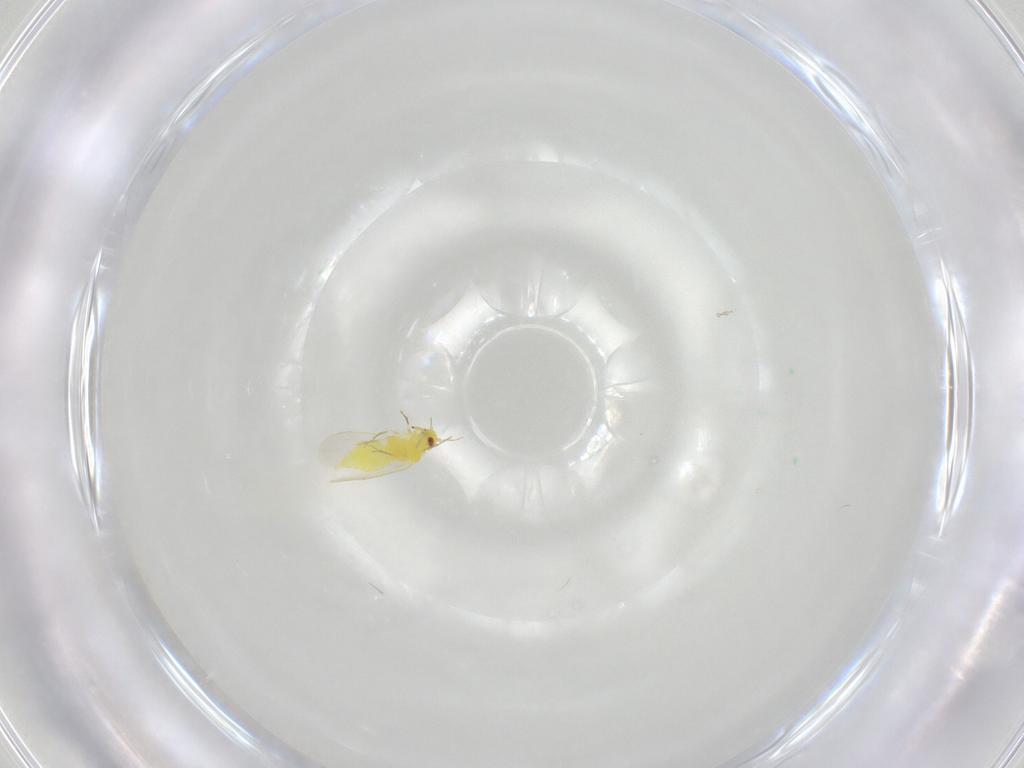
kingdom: Animalia
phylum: Arthropoda
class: Insecta
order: Hemiptera
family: Aleyrodidae
